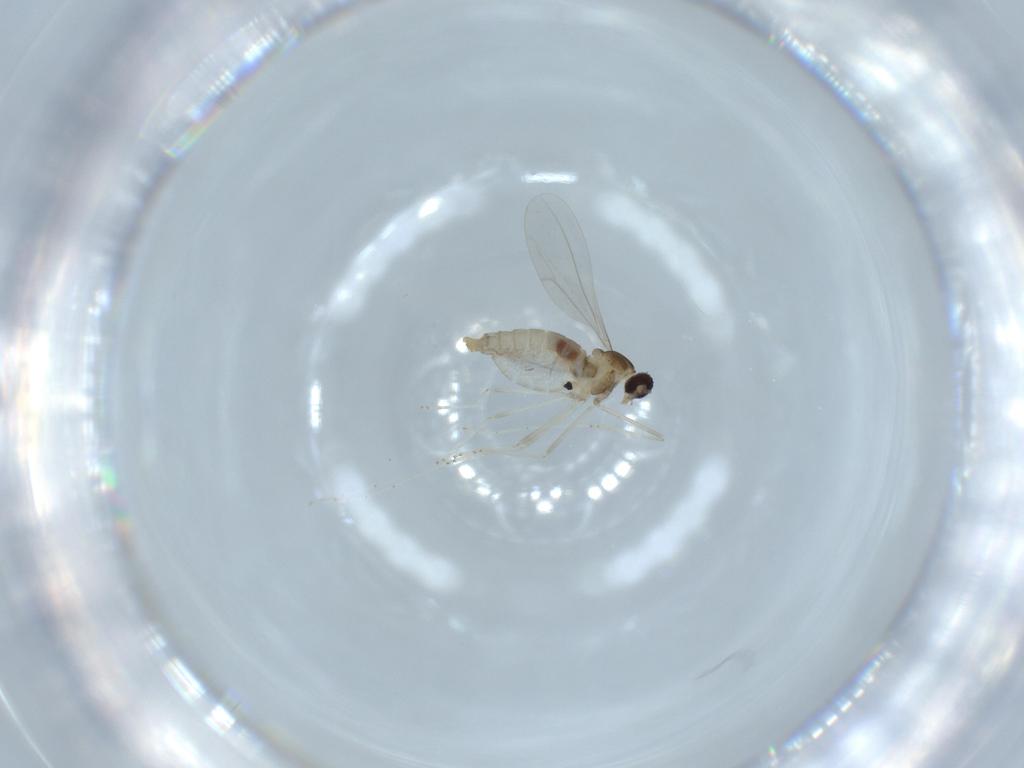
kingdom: Animalia
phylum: Arthropoda
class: Insecta
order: Diptera
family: Cecidomyiidae
